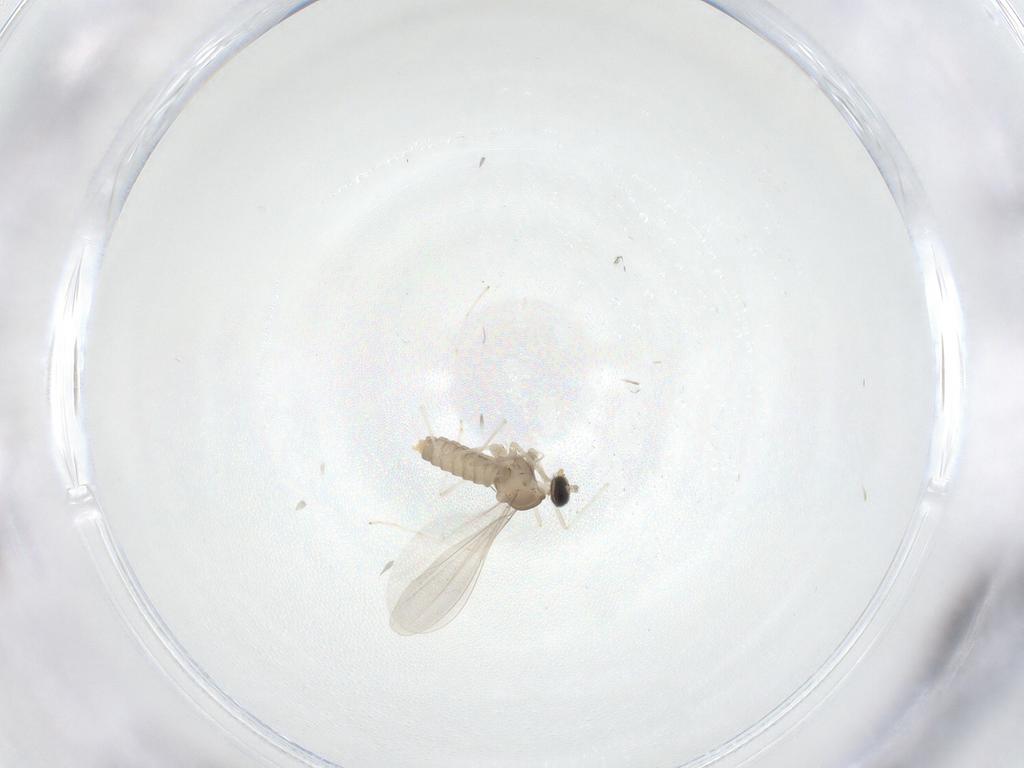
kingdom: Animalia
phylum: Arthropoda
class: Insecta
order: Diptera
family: Cecidomyiidae
